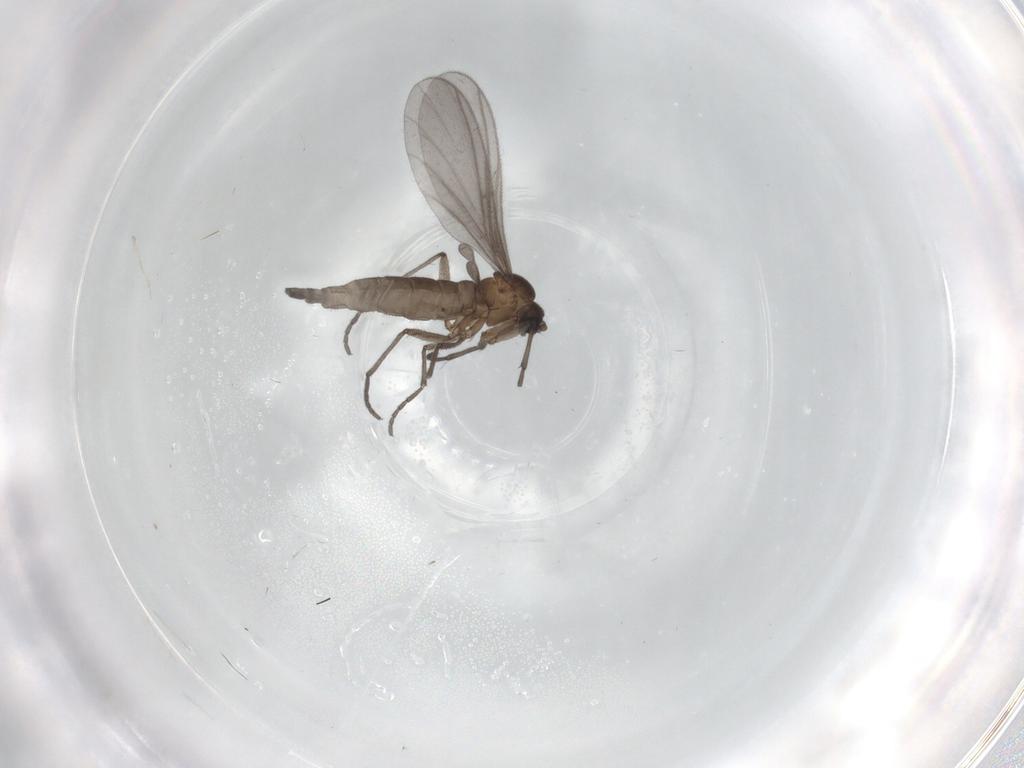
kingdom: Animalia
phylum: Arthropoda
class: Insecta
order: Diptera
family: Sciaridae
